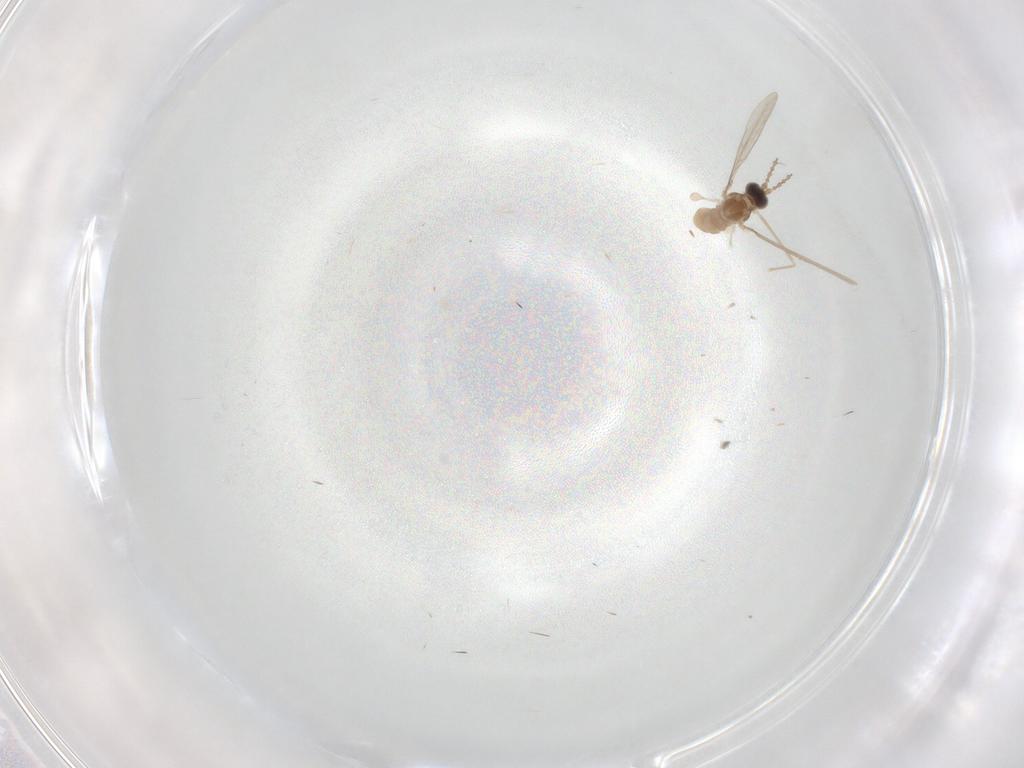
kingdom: Animalia
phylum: Arthropoda
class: Insecta
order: Diptera
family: Cecidomyiidae
